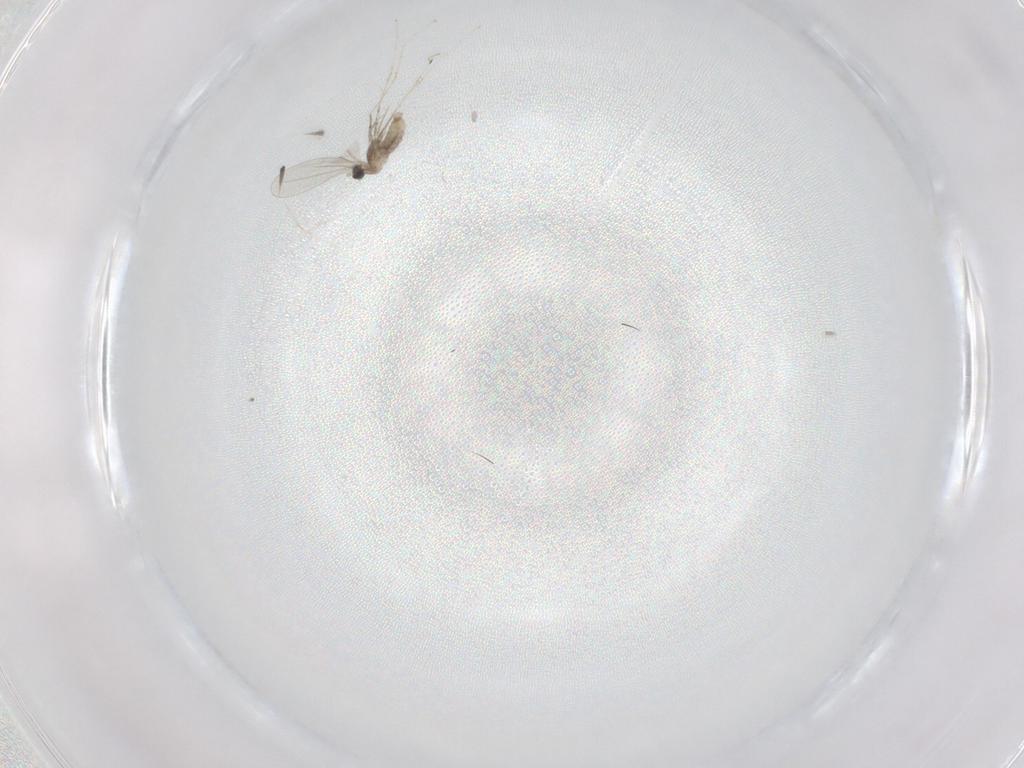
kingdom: Animalia
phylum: Arthropoda
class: Insecta
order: Diptera
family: Cecidomyiidae
